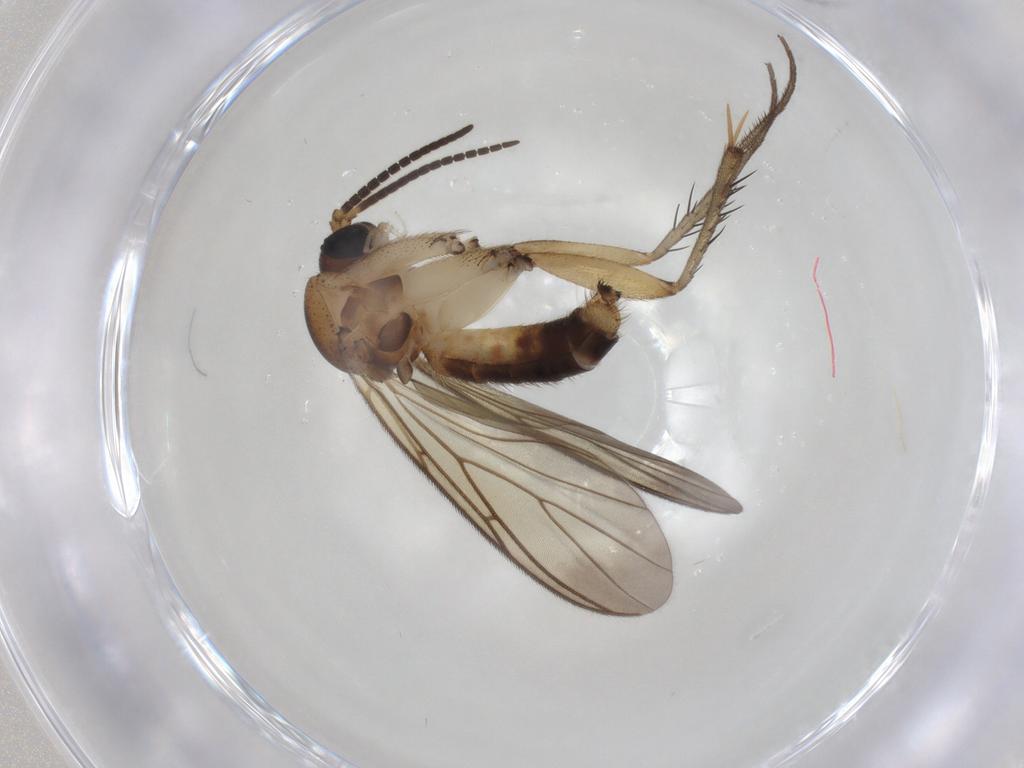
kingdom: Animalia
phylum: Arthropoda
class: Insecta
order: Diptera
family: Mycetophilidae
